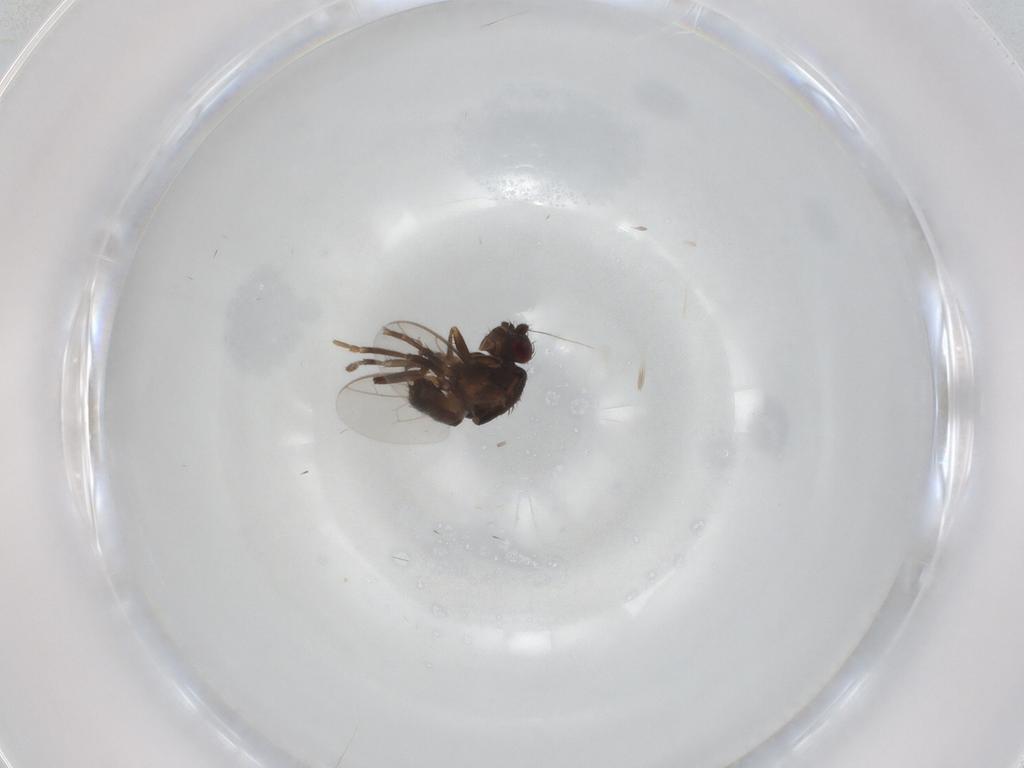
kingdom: Animalia
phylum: Arthropoda
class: Insecta
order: Diptera
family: Sphaeroceridae
